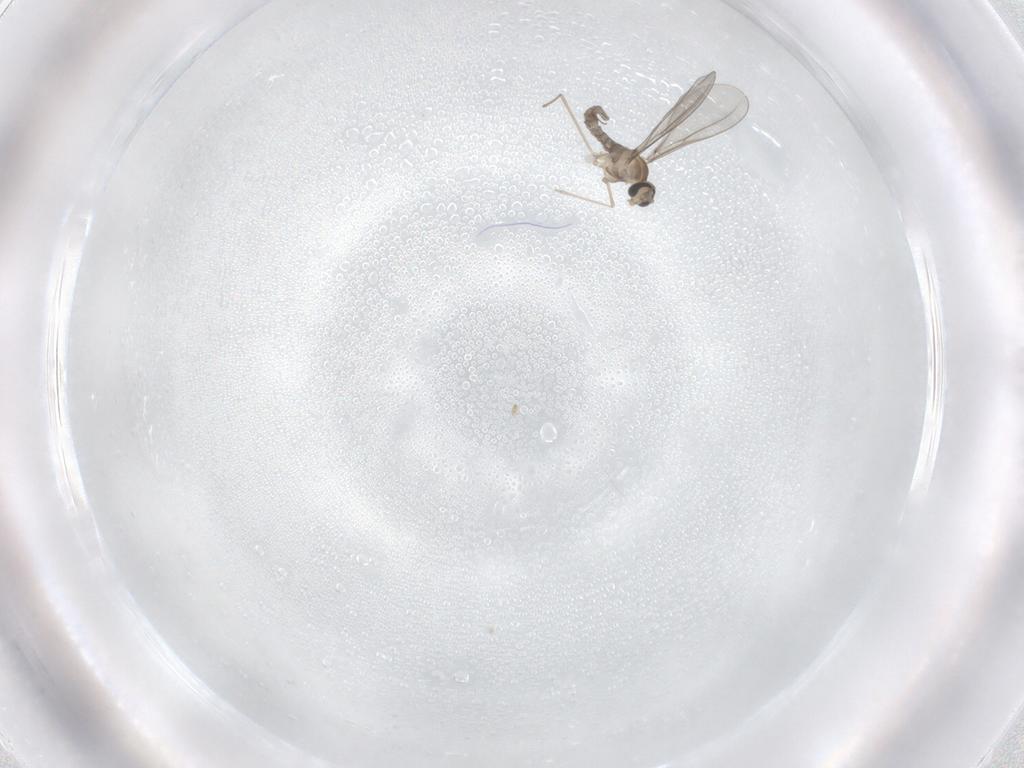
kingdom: Animalia
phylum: Arthropoda
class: Insecta
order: Diptera
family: Cecidomyiidae
